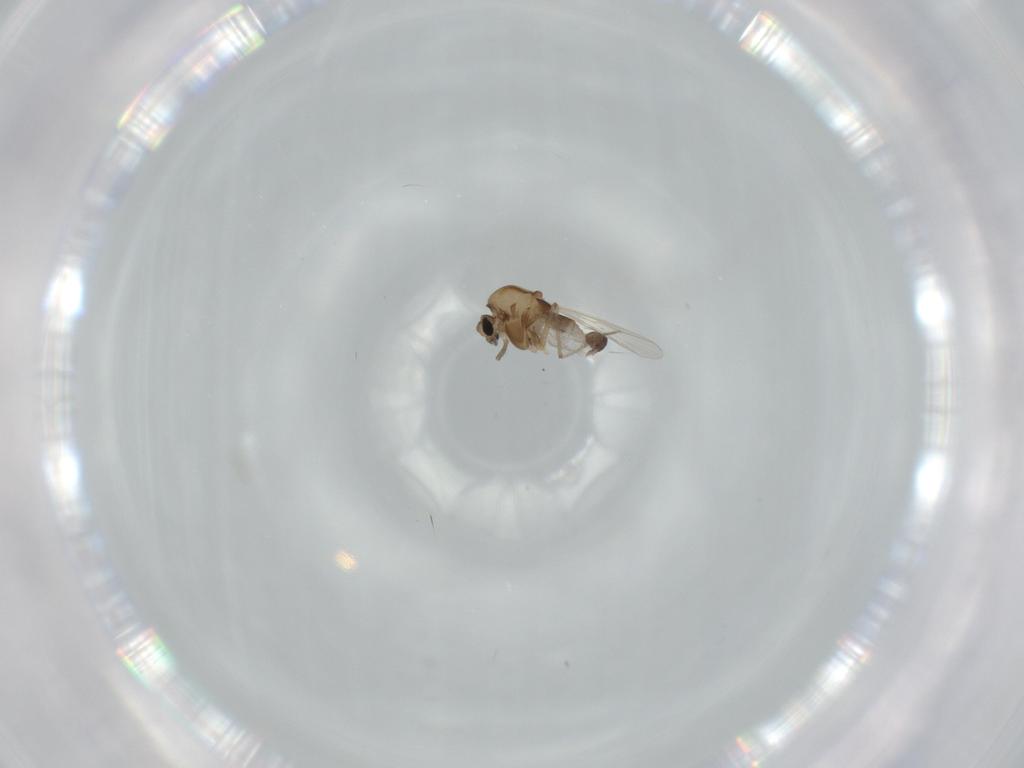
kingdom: Animalia
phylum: Arthropoda
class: Insecta
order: Diptera
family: Chironomidae
